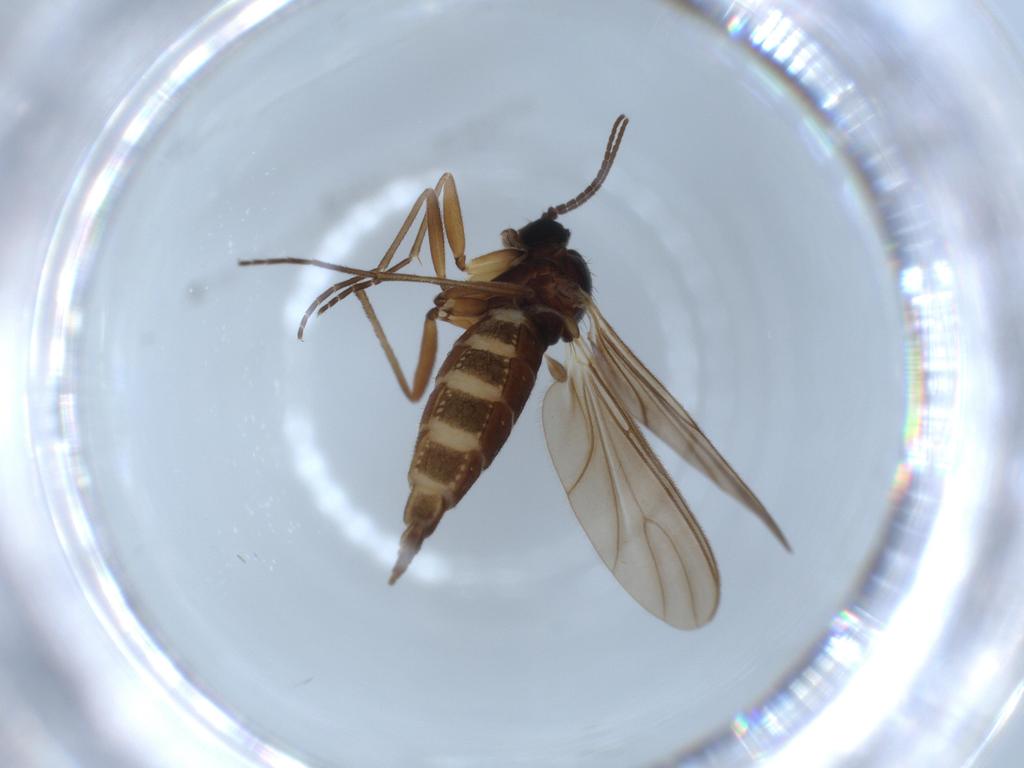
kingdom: Animalia
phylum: Arthropoda
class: Insecta
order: Diptera
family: Sciaridae
